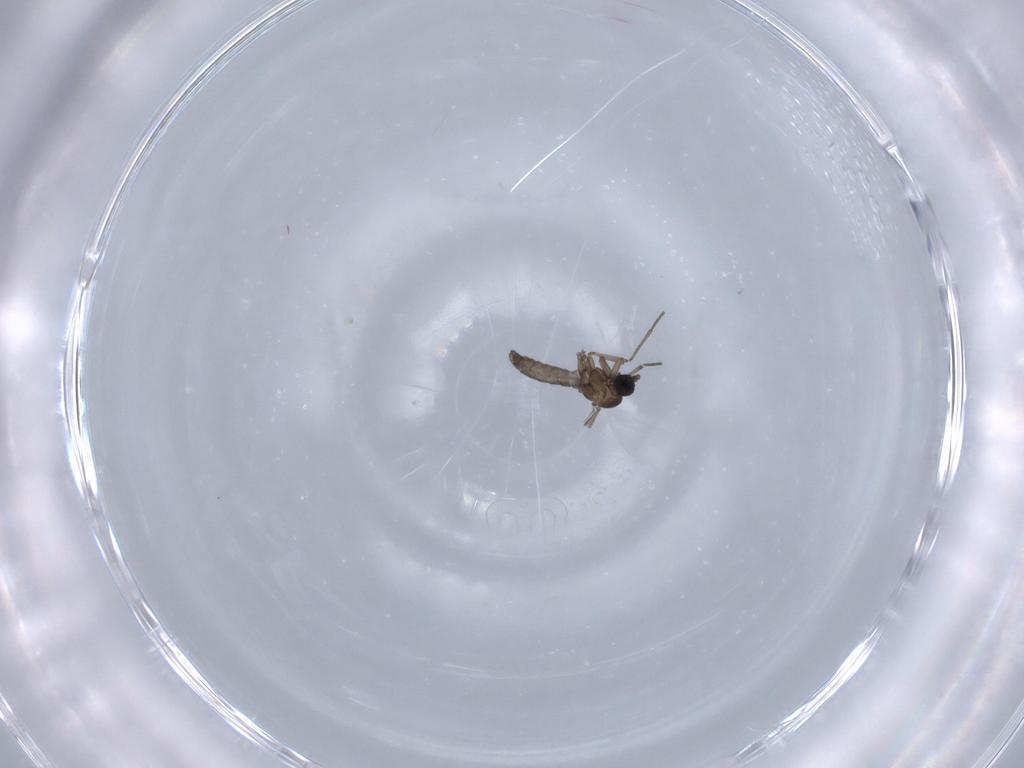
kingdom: Animalia
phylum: Arthropoda
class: Insecta
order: Diptera
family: Sciaridae
